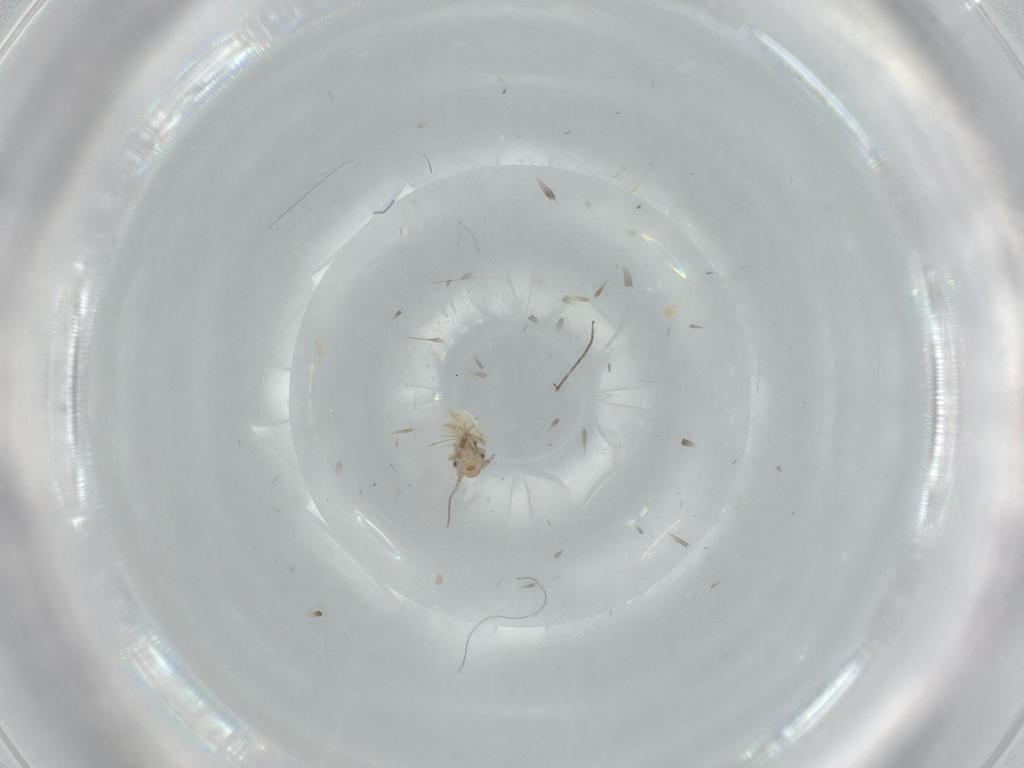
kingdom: Animalia
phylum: Arthropoda
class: Insecta
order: Psocodea
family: Lepidopsocidae
